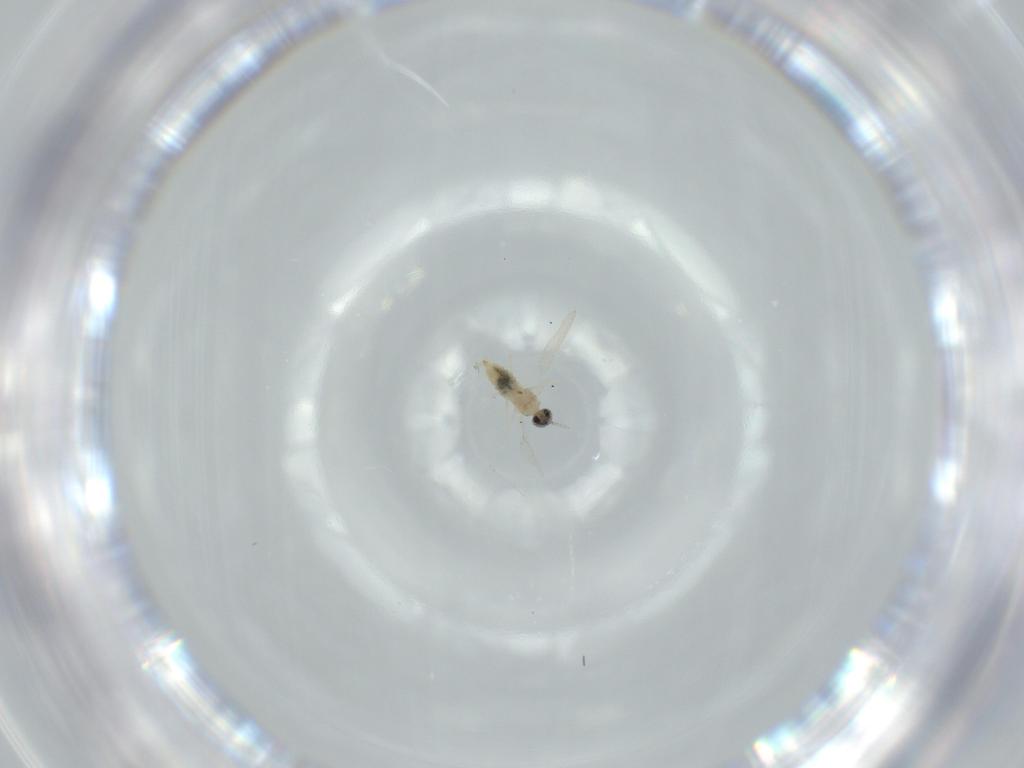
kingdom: Animalia
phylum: Arthropoda
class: Insecta
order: Diptera
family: Cecidomyiidae
